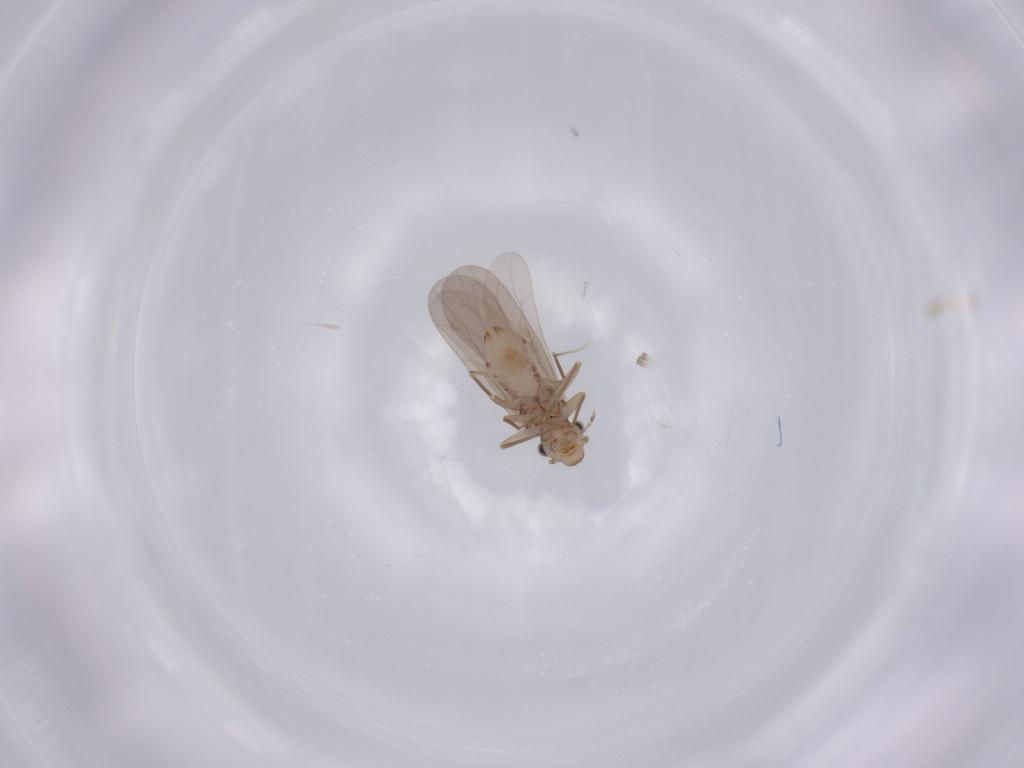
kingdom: Animalia
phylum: Arthropoda
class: Insecta
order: Psocodea
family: Lepidopsocidae
